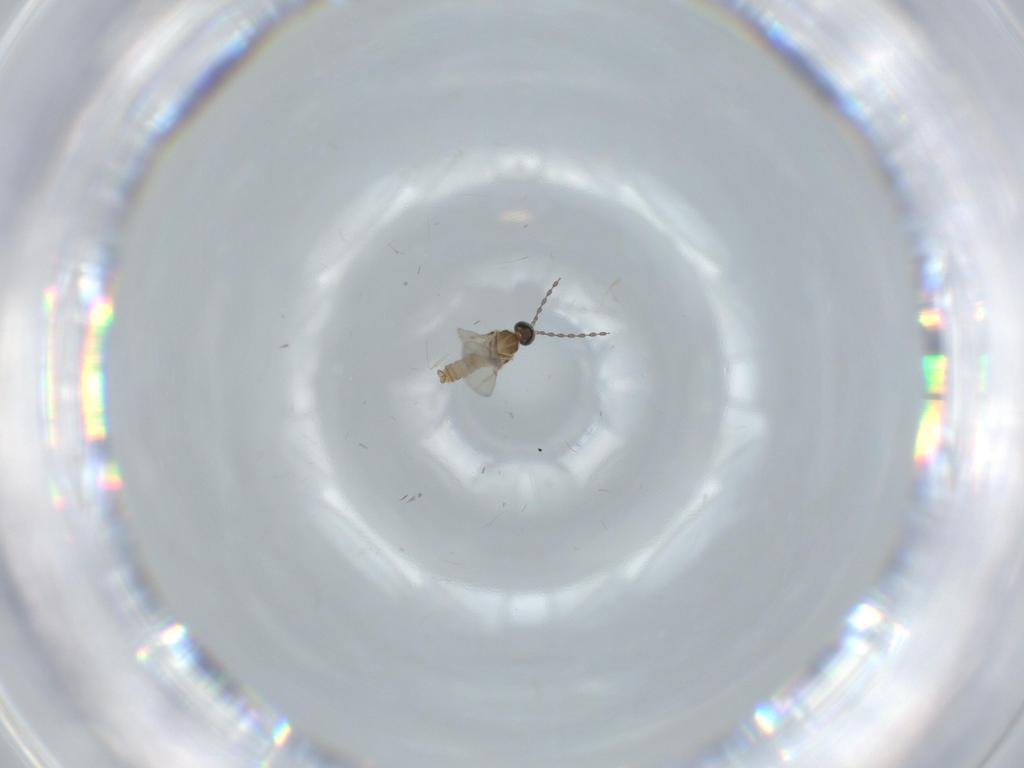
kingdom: Animalia
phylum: Arthropoda
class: Insecta
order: Diptera
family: Cecidomyiidae
